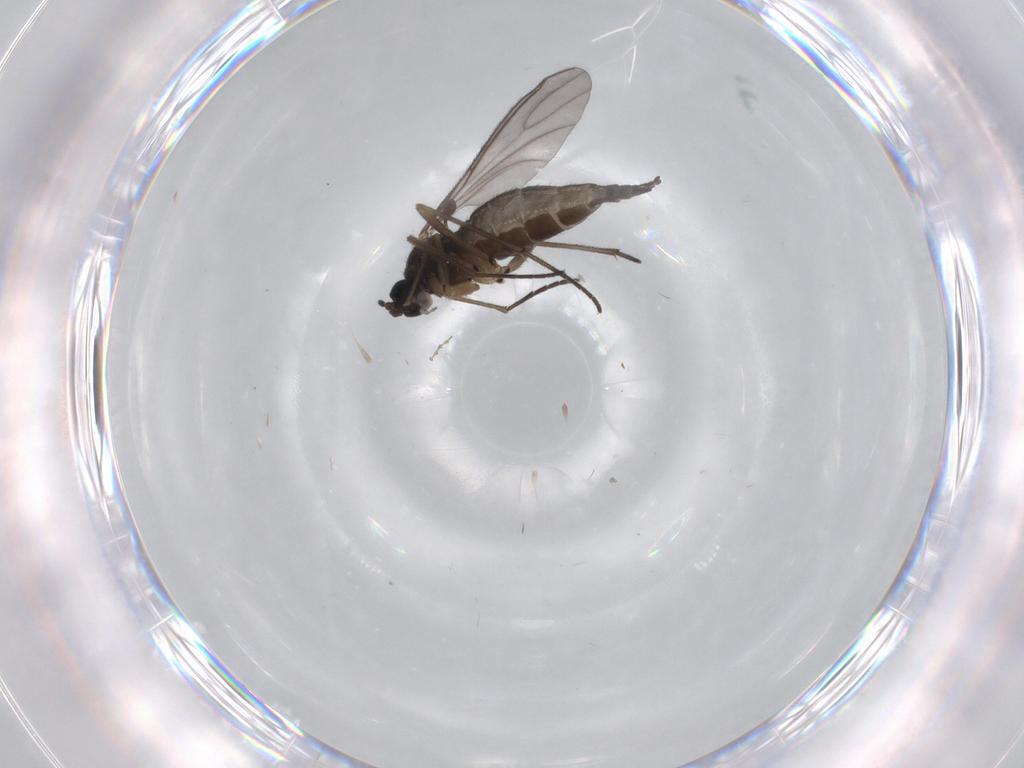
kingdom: Animalia
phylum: Arthropoda
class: Insecta
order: Diptera
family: Sciaridae
